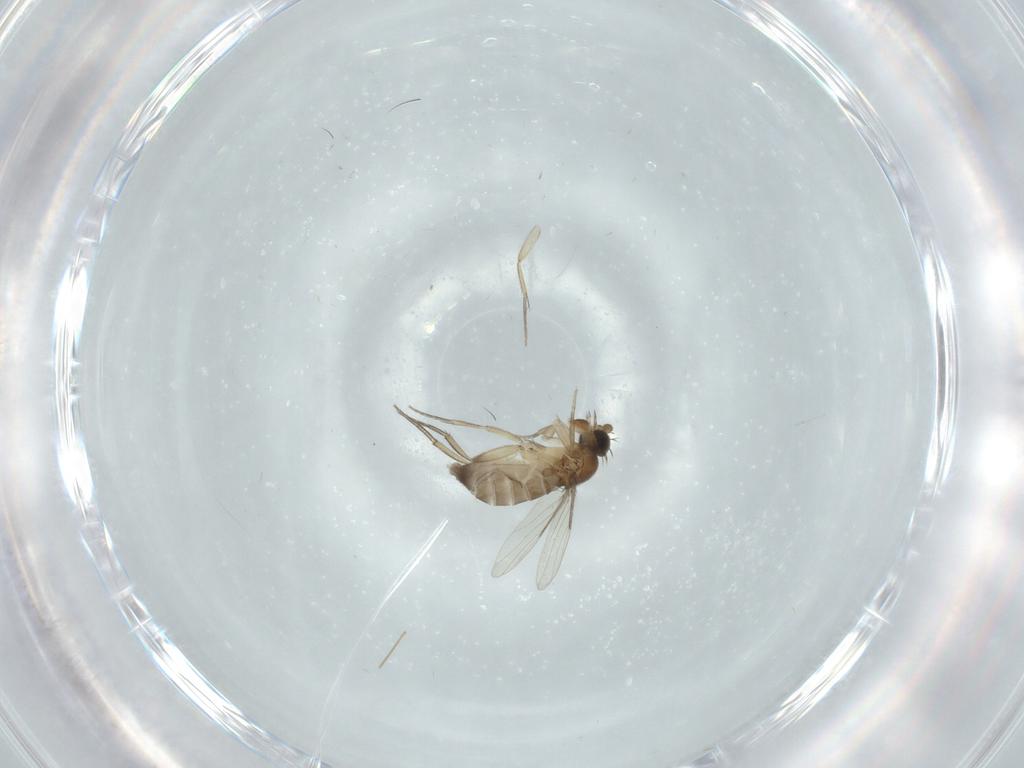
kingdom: Animalia
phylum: Arthropoda
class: Insecta
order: Diptera
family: Phoridae
